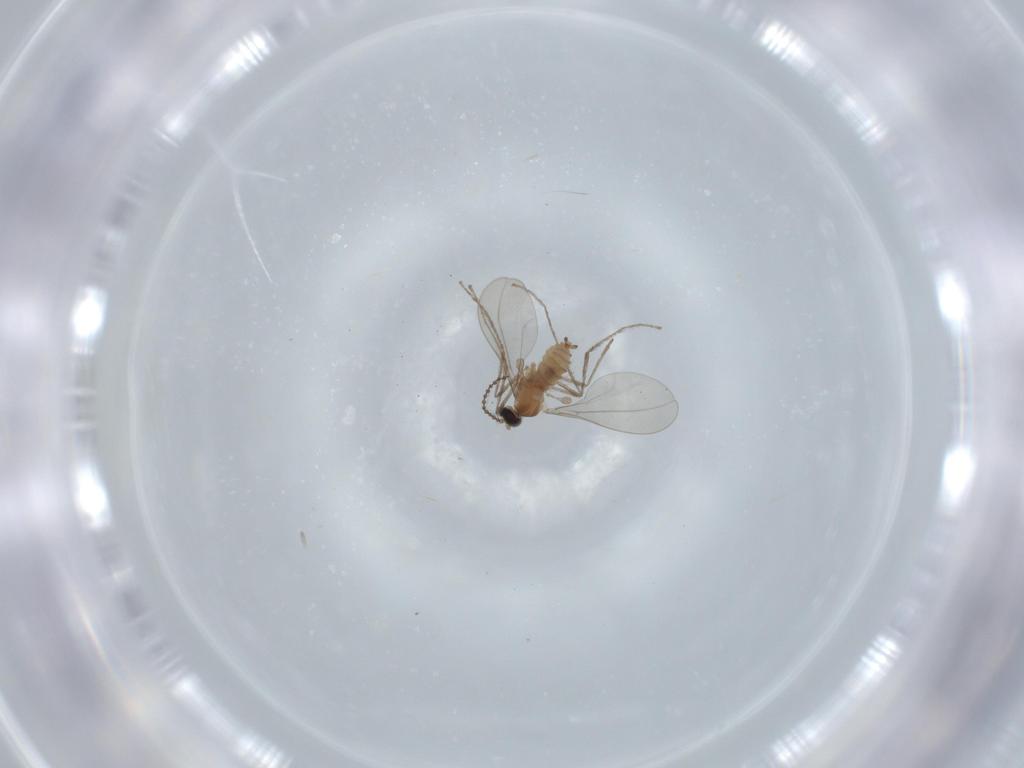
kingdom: Animalia
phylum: Arthropoda
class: Insecta
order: Diptera
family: Cecidomyiidae
